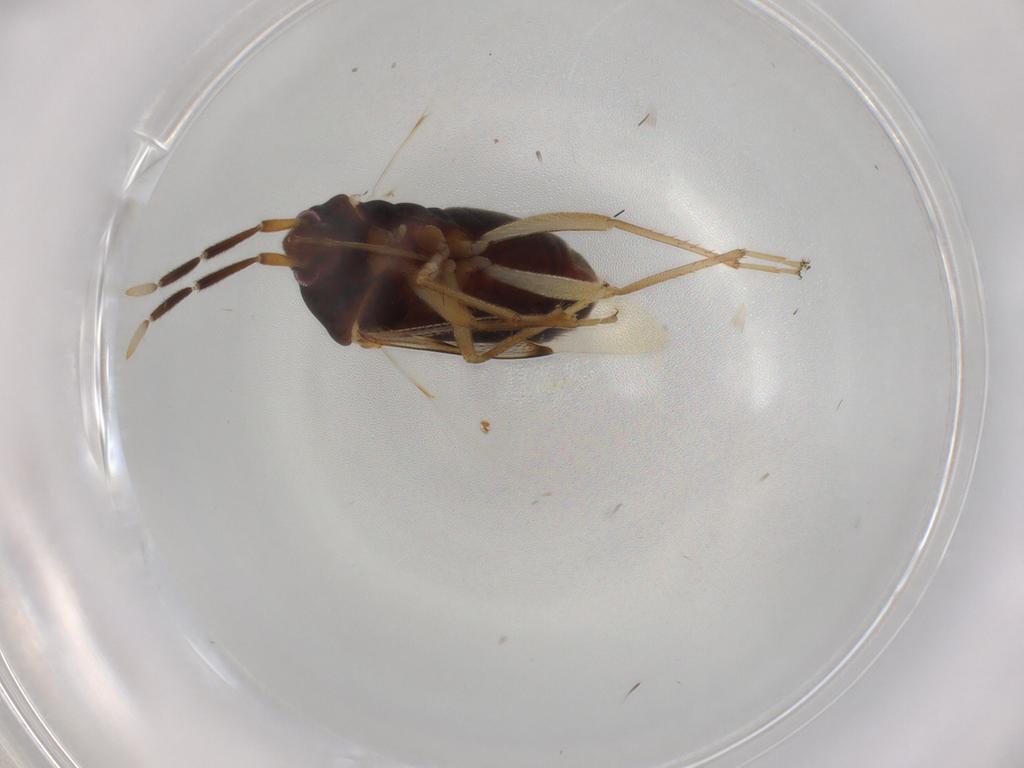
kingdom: Animalia
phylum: Arthropoda
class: Insecta
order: Hemiptera
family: Rhyparochromidae
